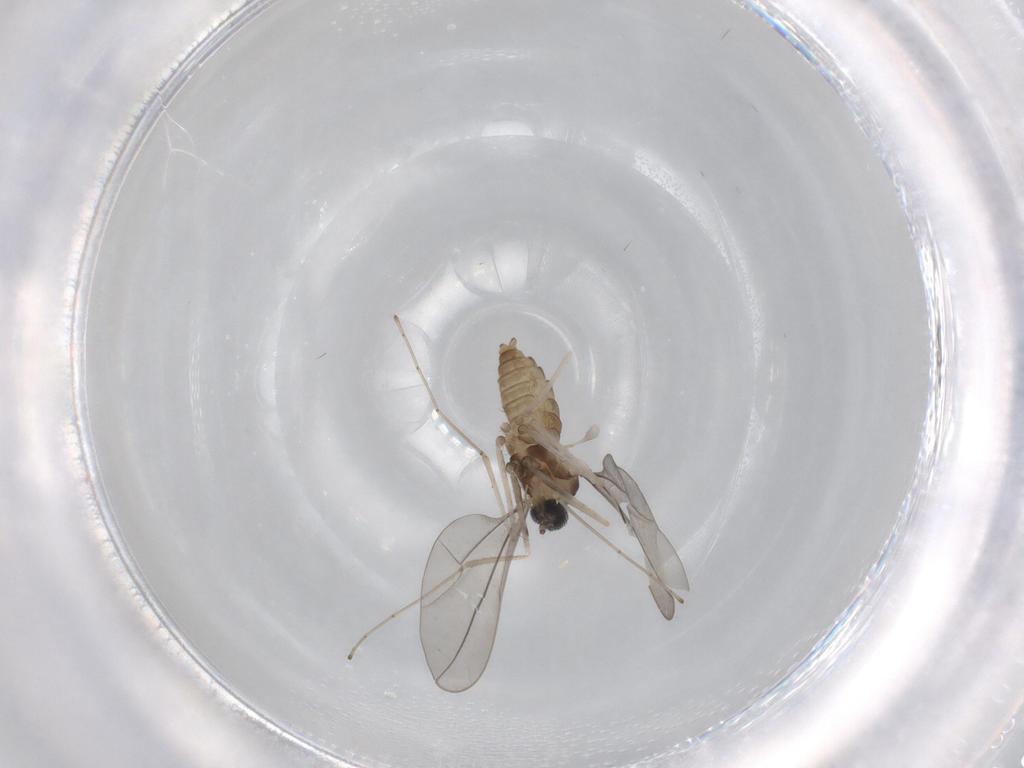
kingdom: Animalia
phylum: Arthropoda
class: Insecta
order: Diptera
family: Cecidomyiidae
